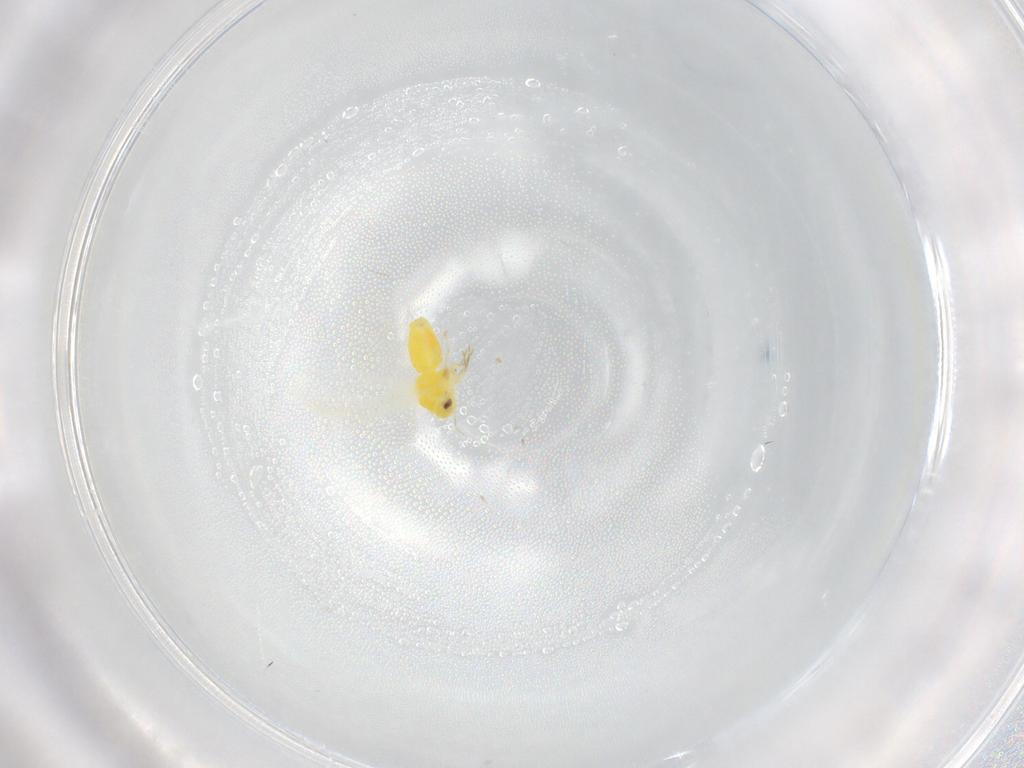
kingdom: Animalia
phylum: Arthropoda
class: Insecta
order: Hemiptera
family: Aleyrodidae
